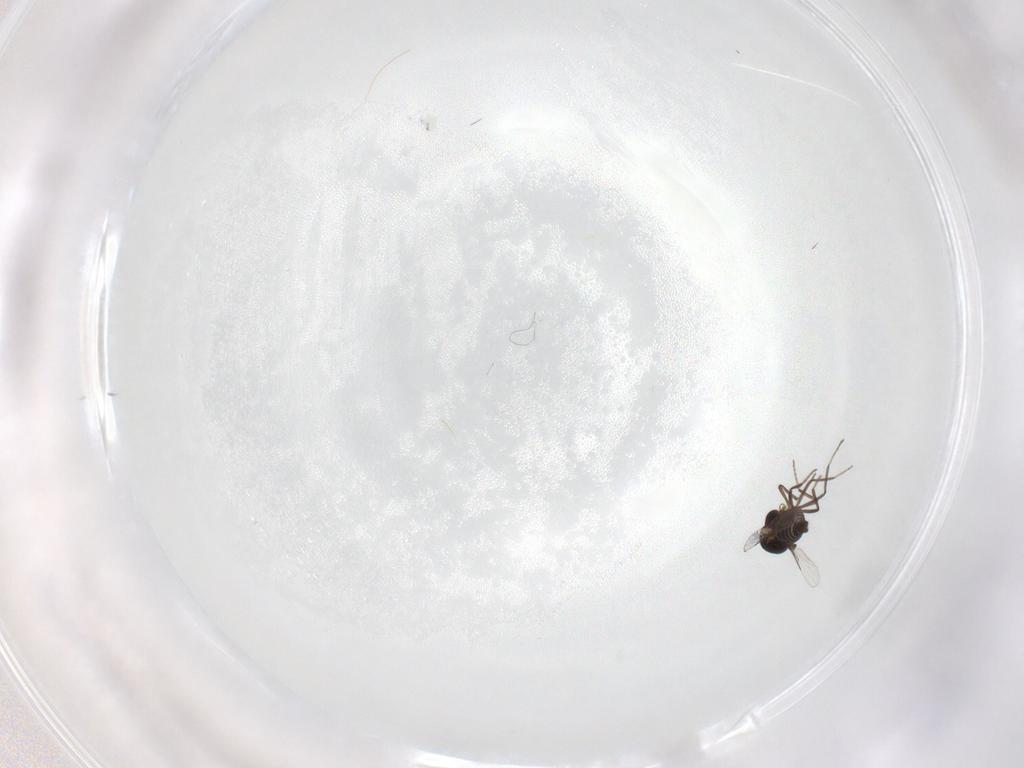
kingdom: Animalia
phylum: Arthropoda
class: Insecta
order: Diptera
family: Ceratopogonidae
